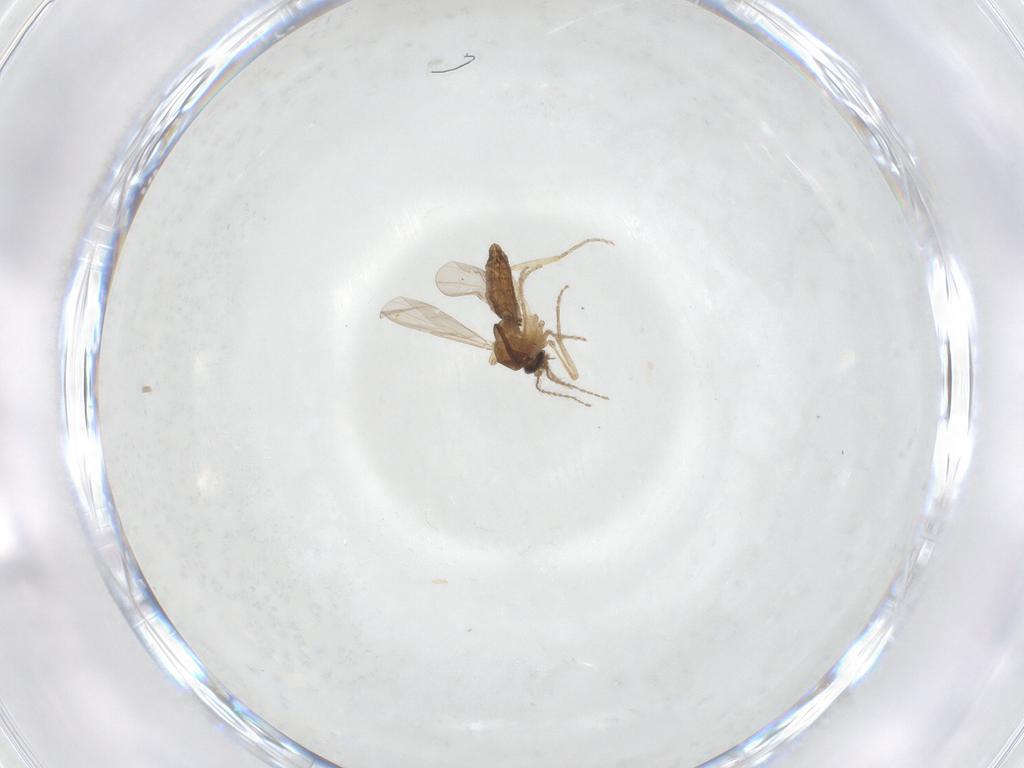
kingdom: Animalia
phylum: Arthropoda
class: Insecta
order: Diptera
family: Ceratopogonidae
